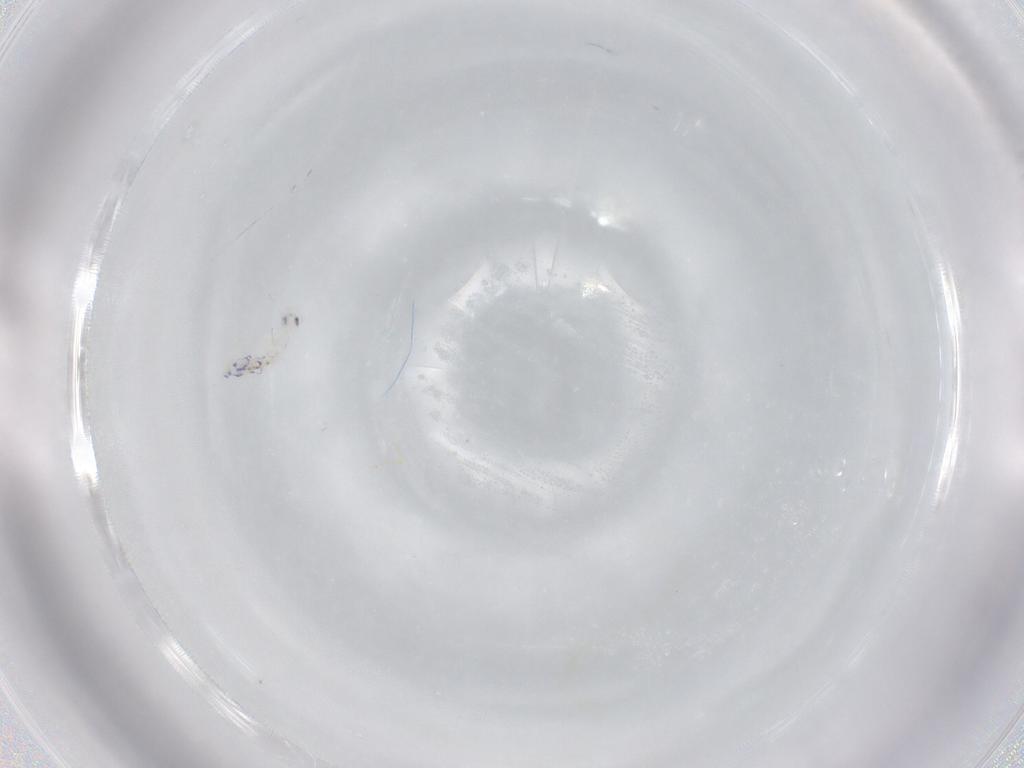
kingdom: Animalia
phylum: Arthropoda
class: Collembola
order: Entomobryomorpha
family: Entomobryidae
